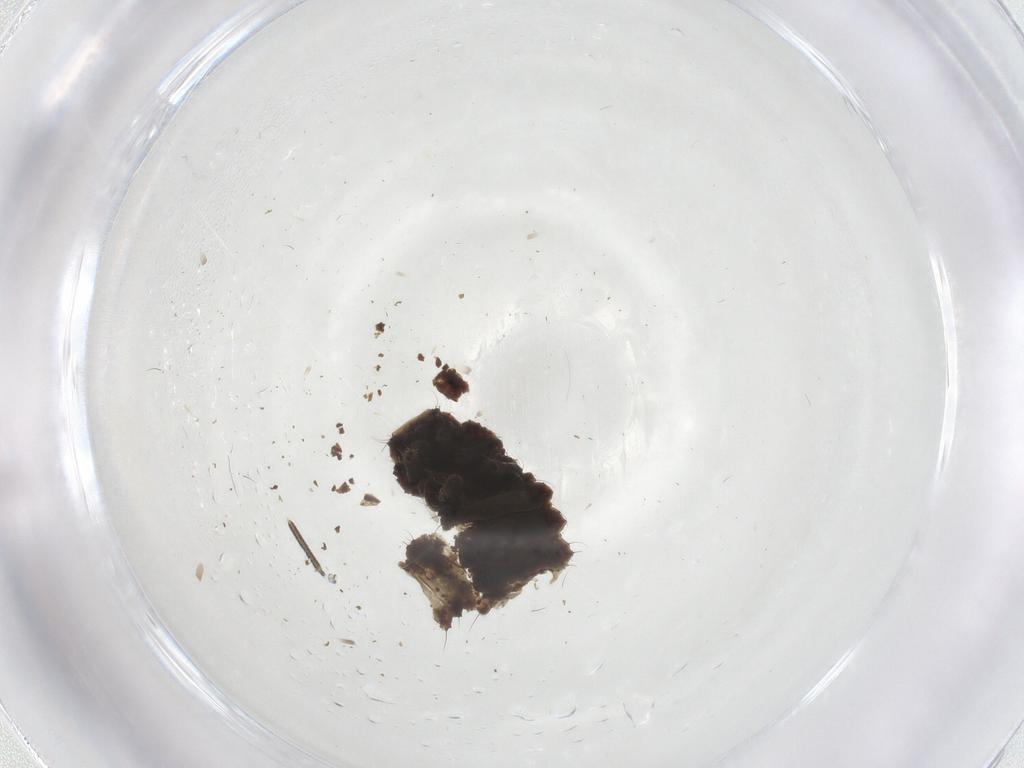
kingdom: Animalia
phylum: Arthropoda
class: Insecta
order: Diptera
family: Keroplatidae
